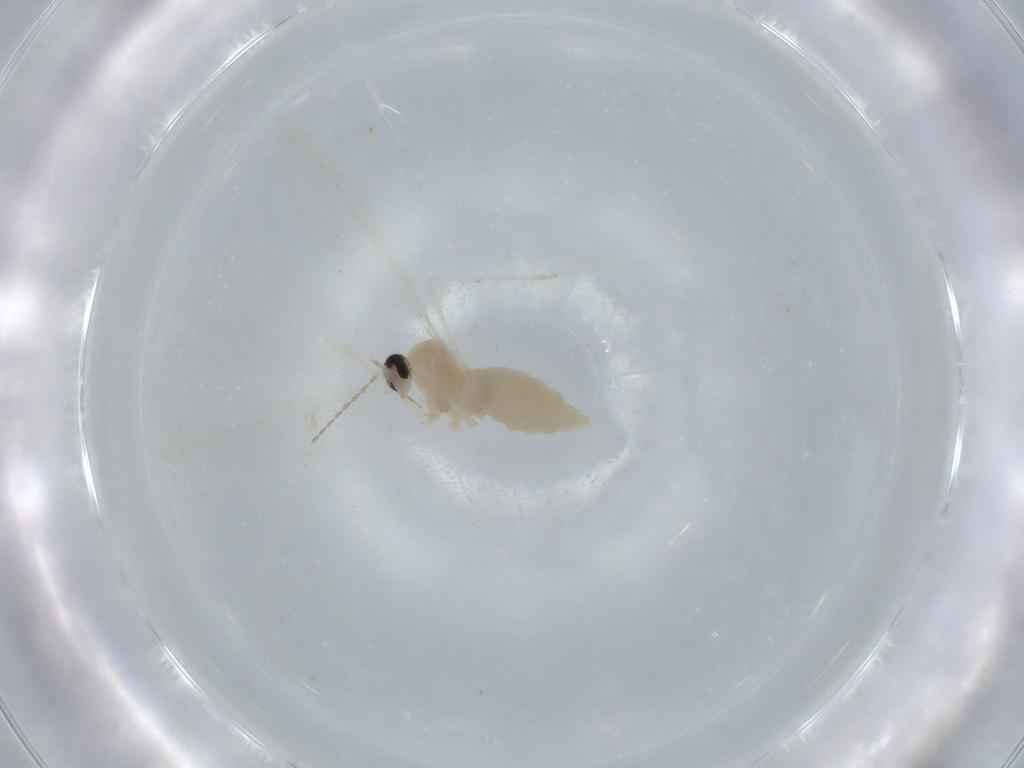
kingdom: Animalia
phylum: Arthropoda
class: Insecta
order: Diptera
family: Cecidomyiidae
